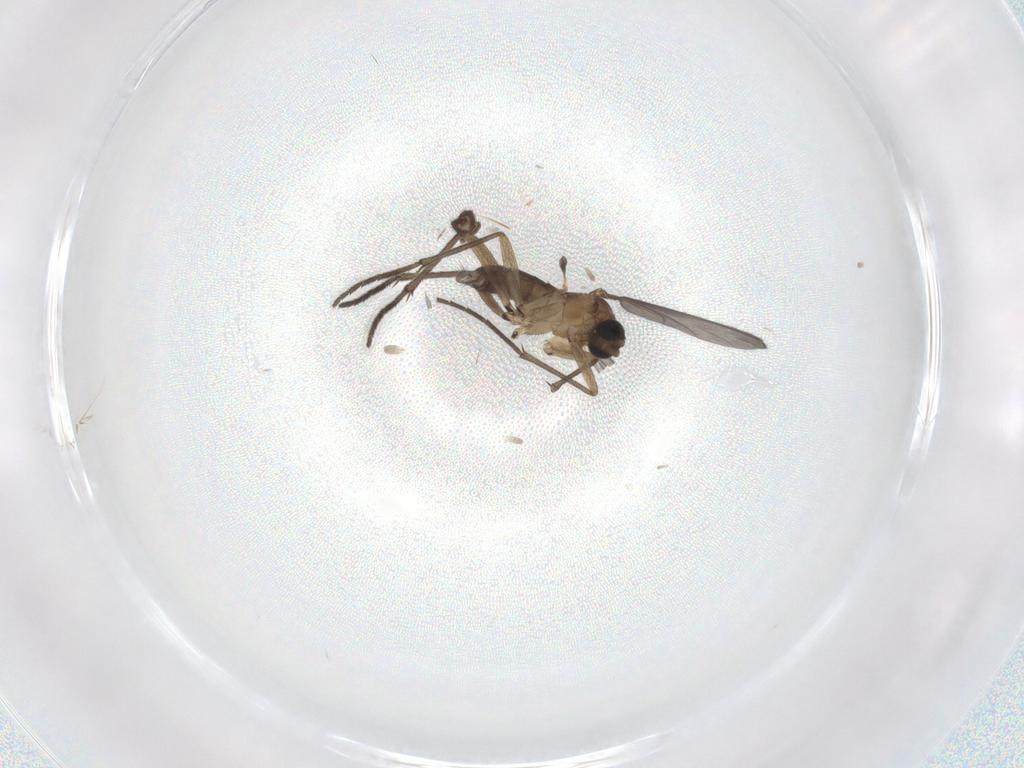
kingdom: Animalia
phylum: Arthropoda
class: Insecta
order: Diptera
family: Sciaridae
